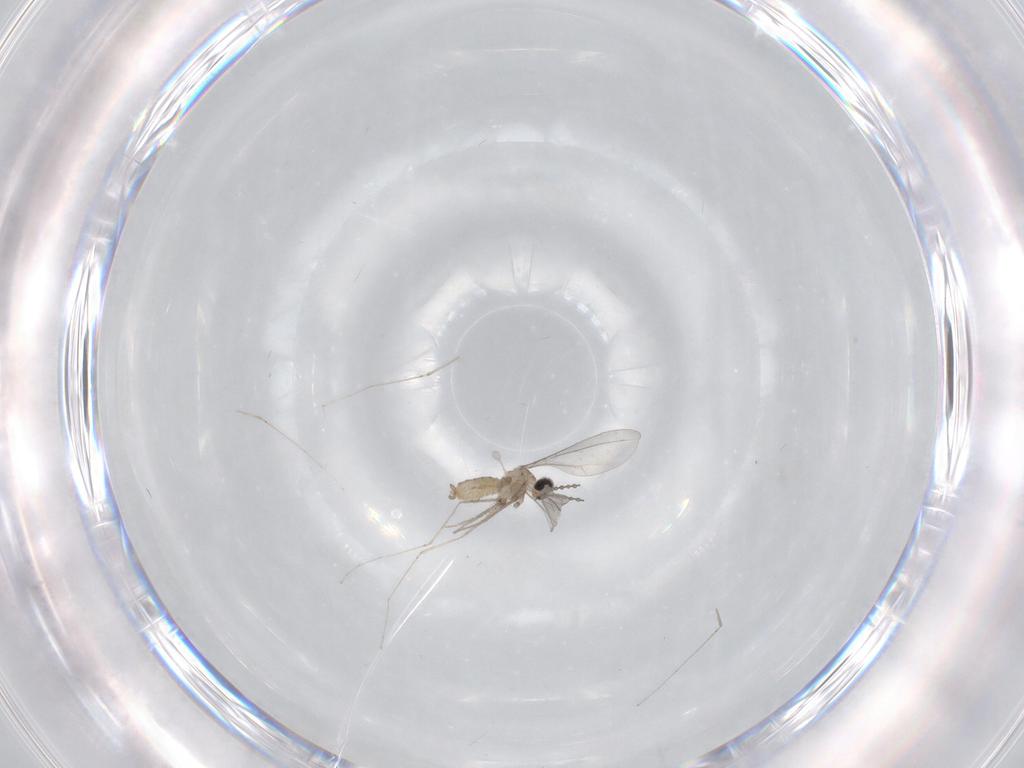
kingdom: Animalia
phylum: Arthropoda
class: Insecta
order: Diptera
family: Cecidomyiidae
